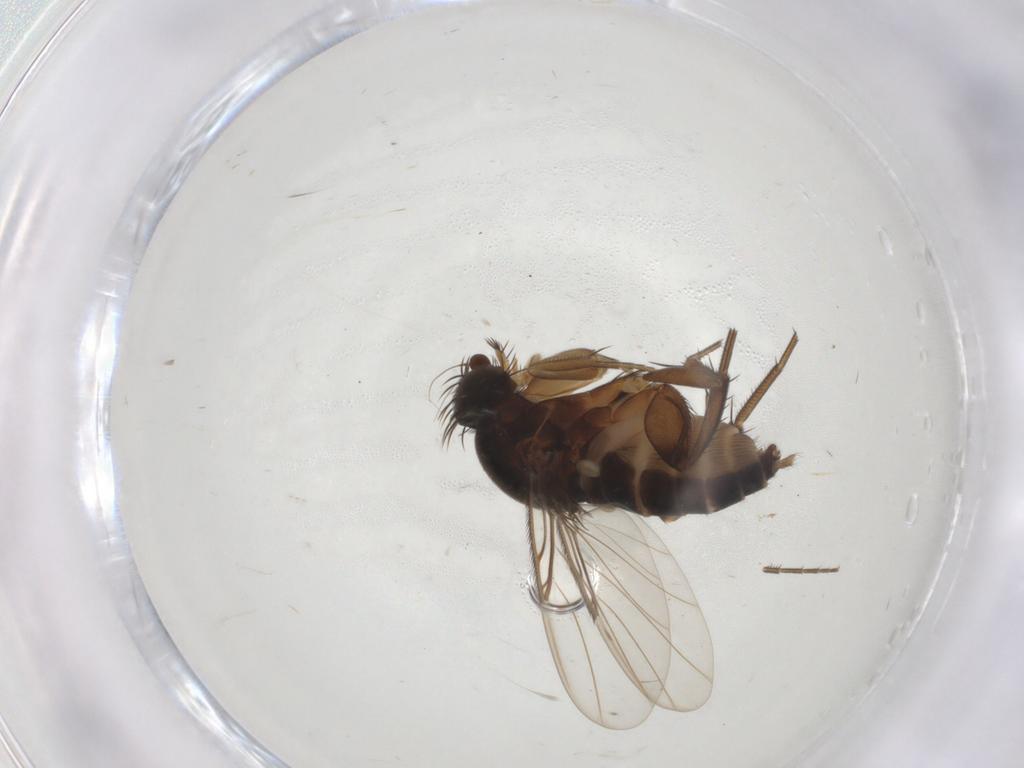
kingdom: Animalia
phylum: Arthropoda
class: Insecta
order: Diptera
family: Phoridae
